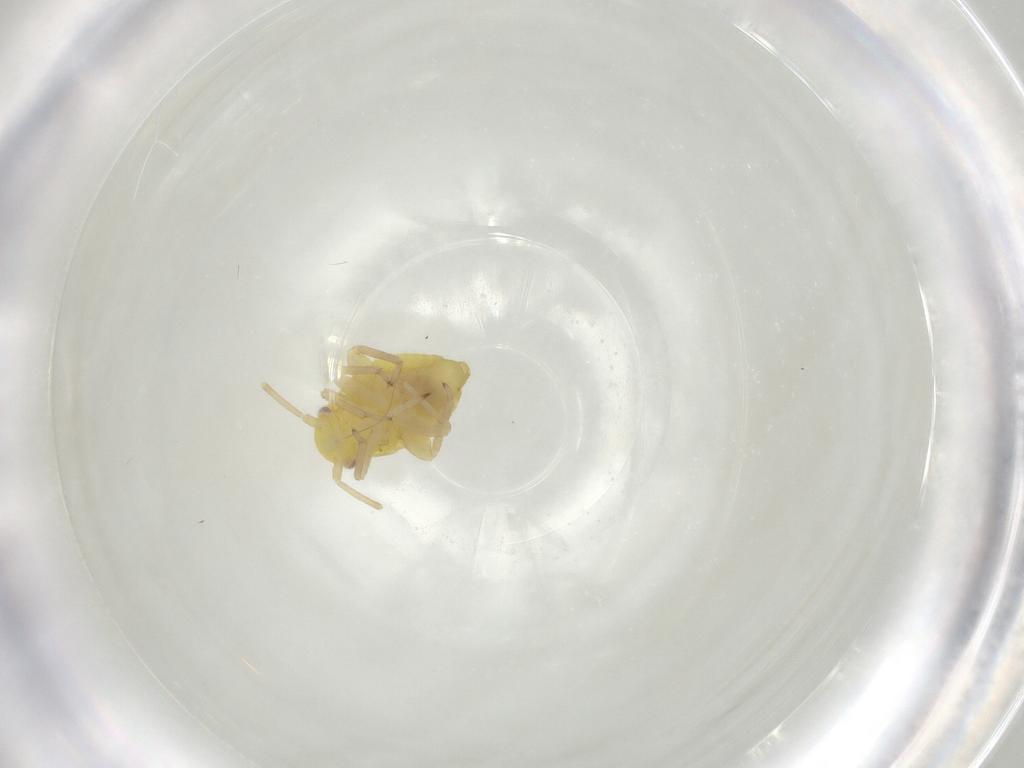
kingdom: Animalia
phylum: Arthropoda
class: Insecta
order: Hemiptera
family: Miridae
